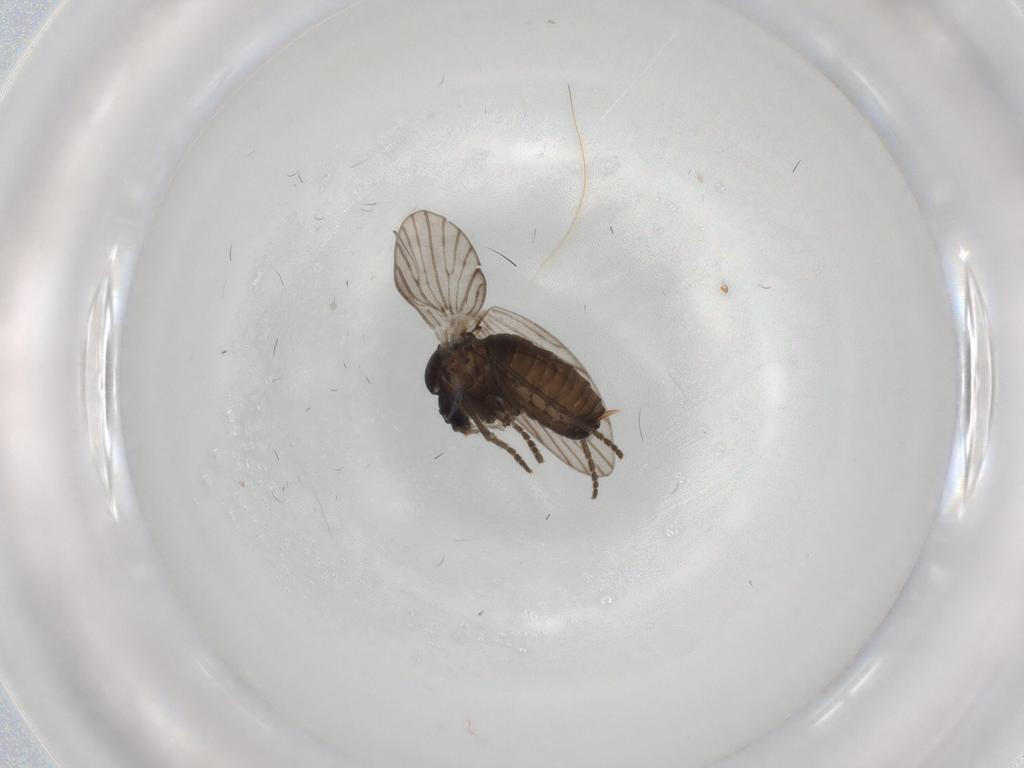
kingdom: Animalia
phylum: Arthropoda
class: Insecta
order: Diptera
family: Psychodidae
